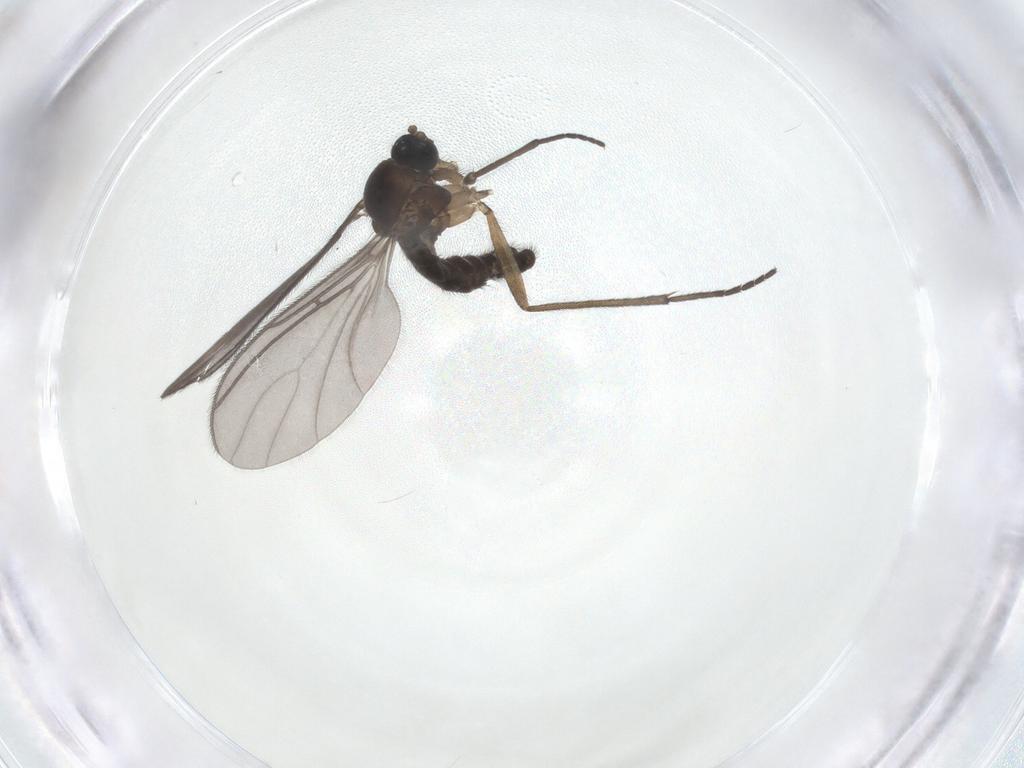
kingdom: Animalia
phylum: Arthropoda
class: Insecta
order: Diptera
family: Sciaridae
